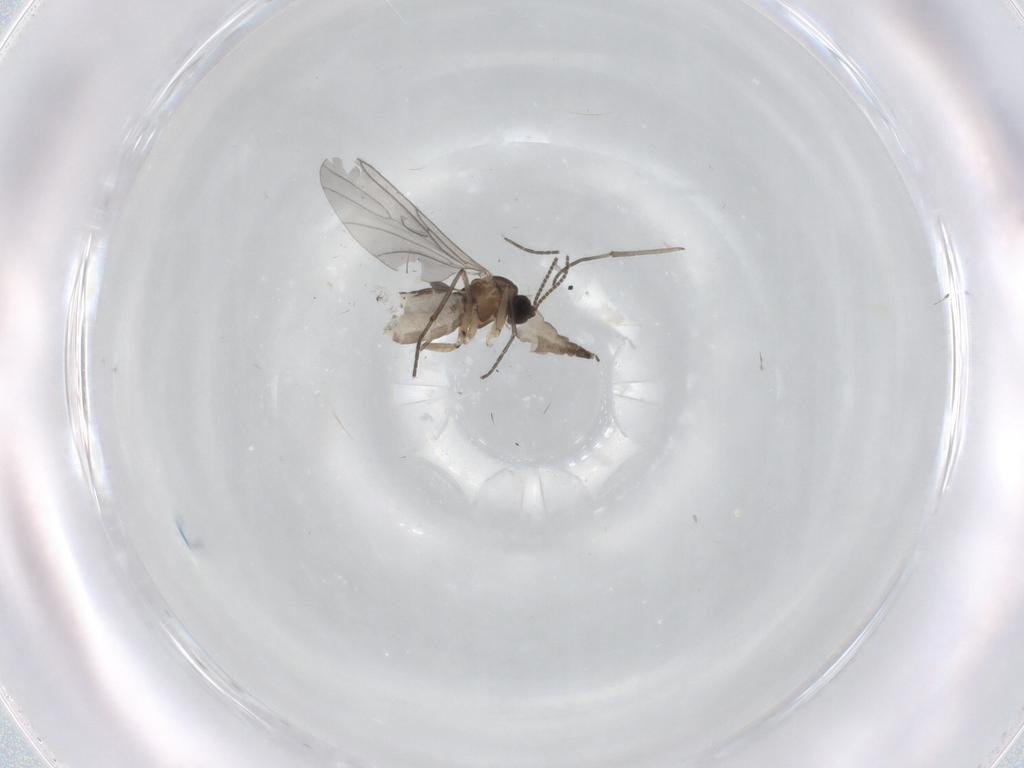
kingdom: Animalia
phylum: Arthropoda
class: Insecta
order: Diptera
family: Sciaridae
